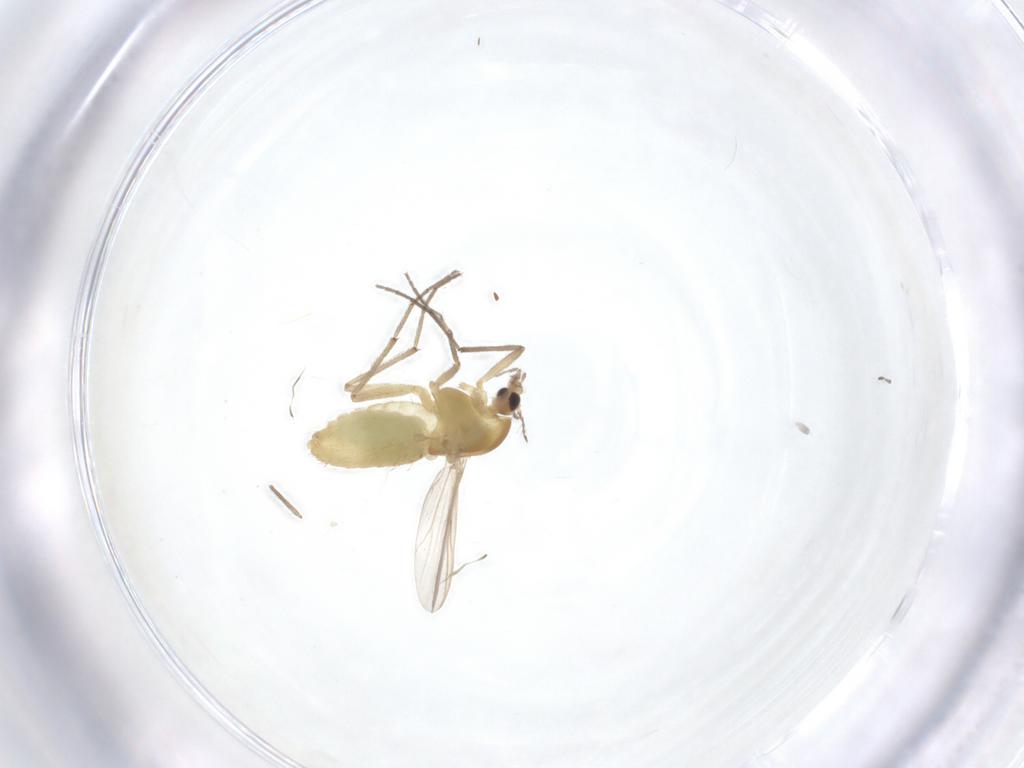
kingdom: Animalia
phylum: Arthropoda
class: Insecta
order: Diptera
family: Chironomidae
